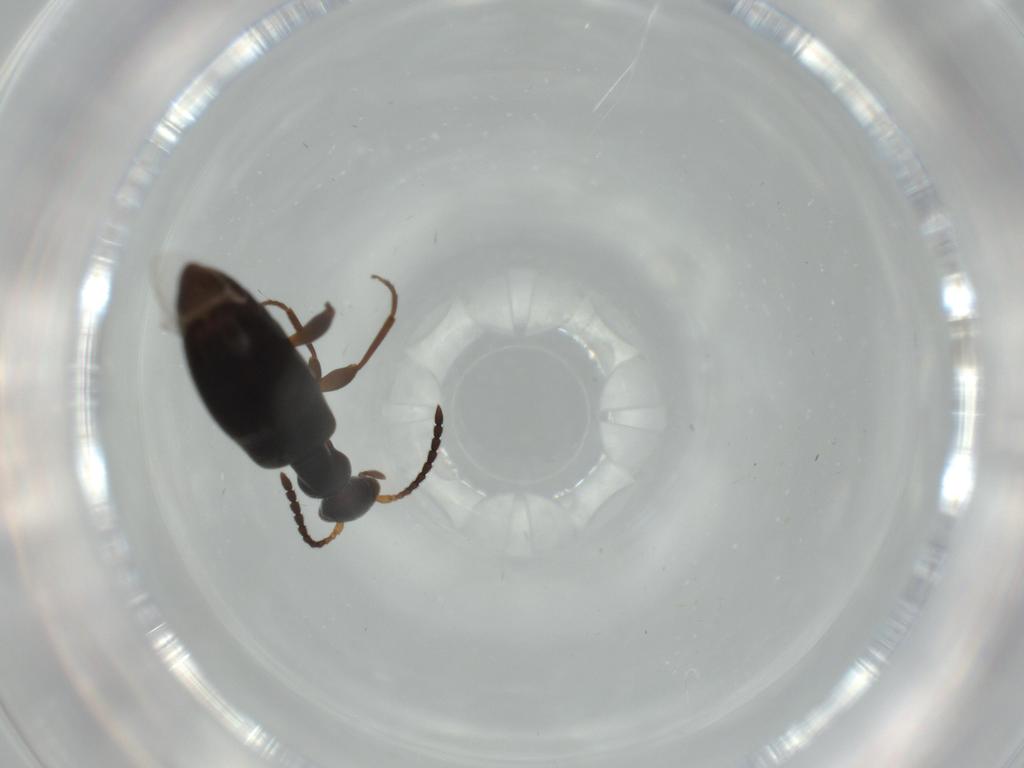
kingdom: Animalia
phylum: Arthropoda
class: Insecta
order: Coleoptera
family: Anthicidae
